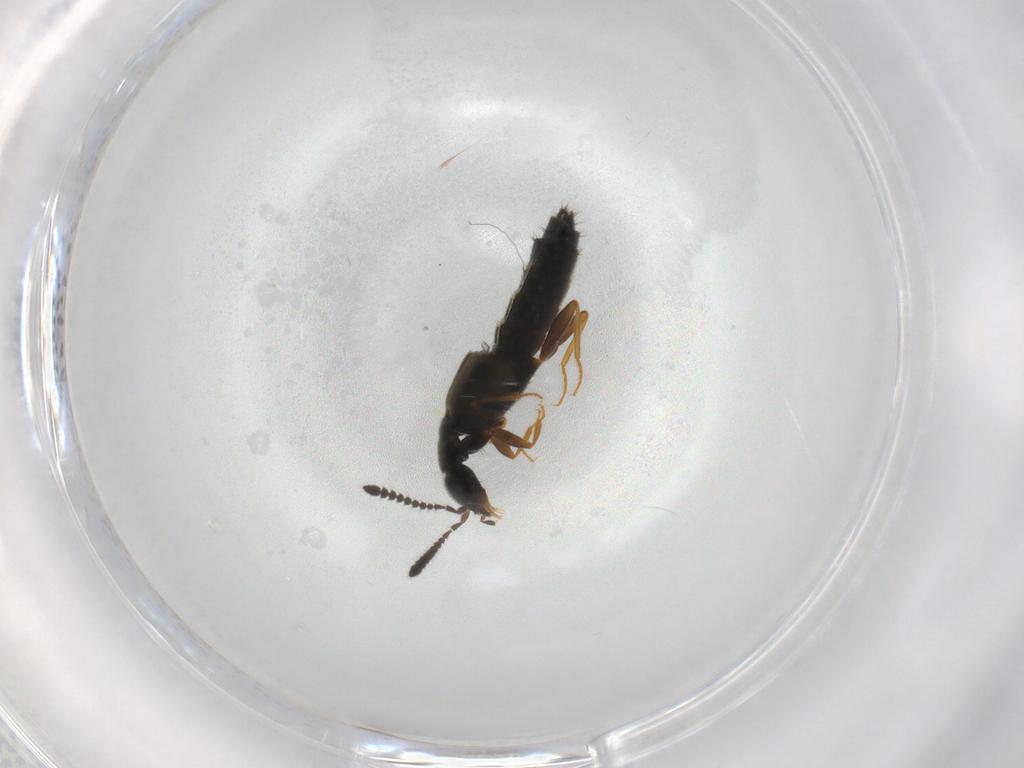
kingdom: Animalia
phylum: Arthropoda
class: Insecta
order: Coleoptera
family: Staphylinidae
